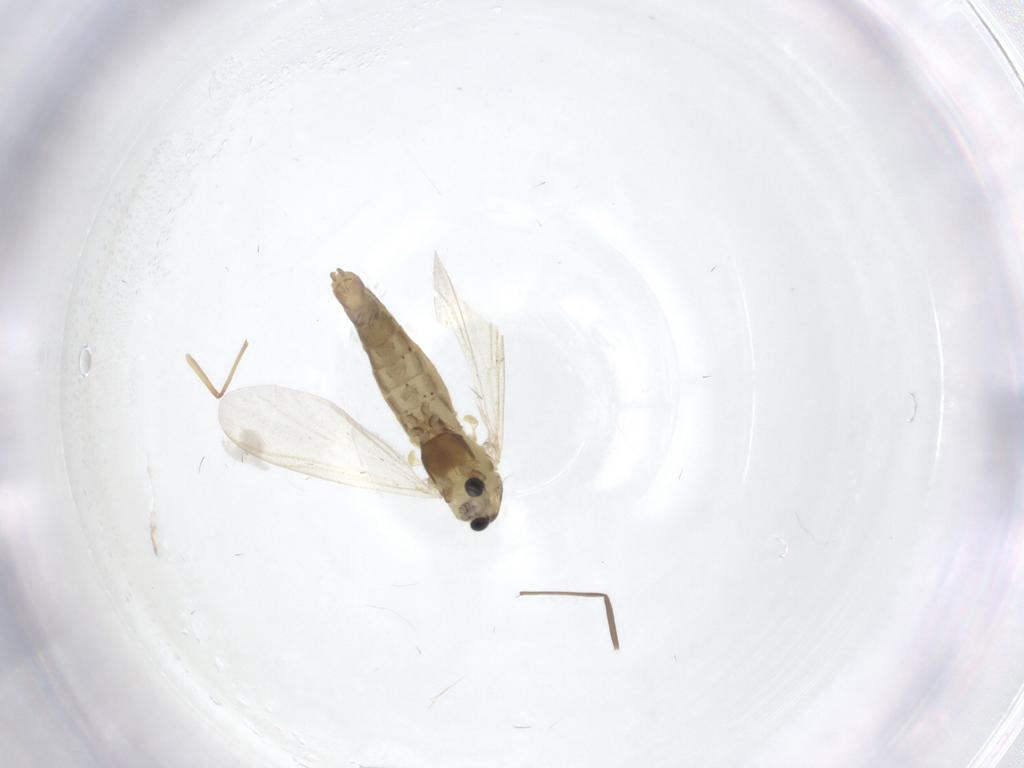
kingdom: Animalia
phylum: Arthropoda
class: Insecta
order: Diptera
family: Chironomidae
